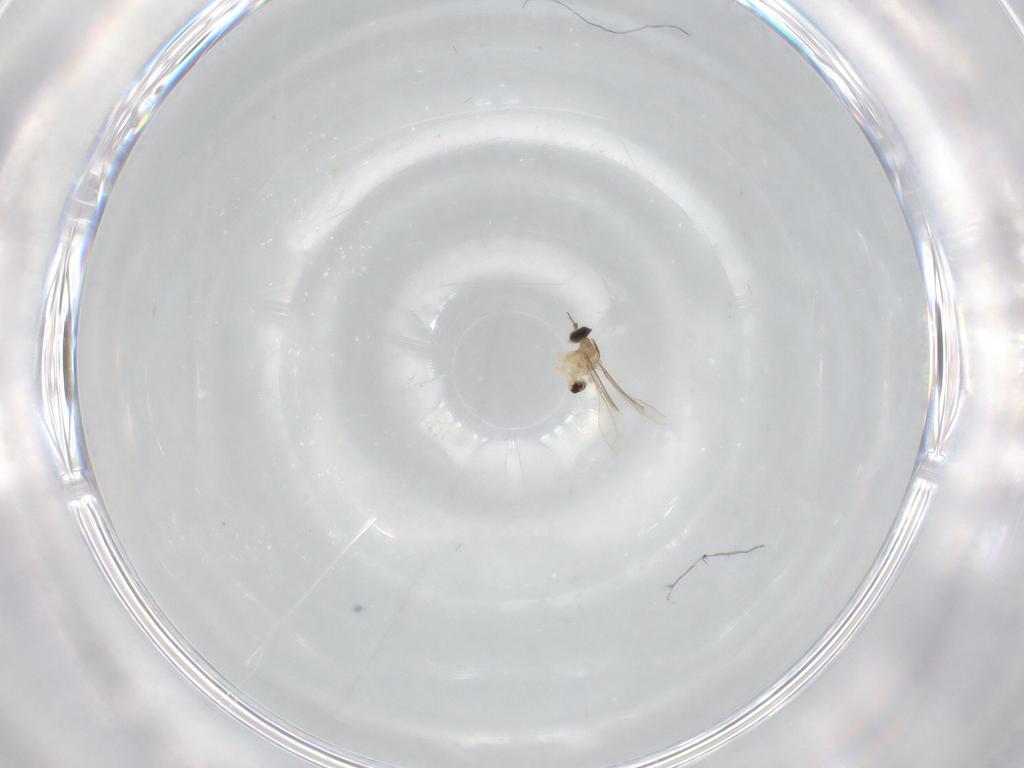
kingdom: Animalia
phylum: Arthropoda
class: Insecta
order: Diptera
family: Cecidomyiidae
